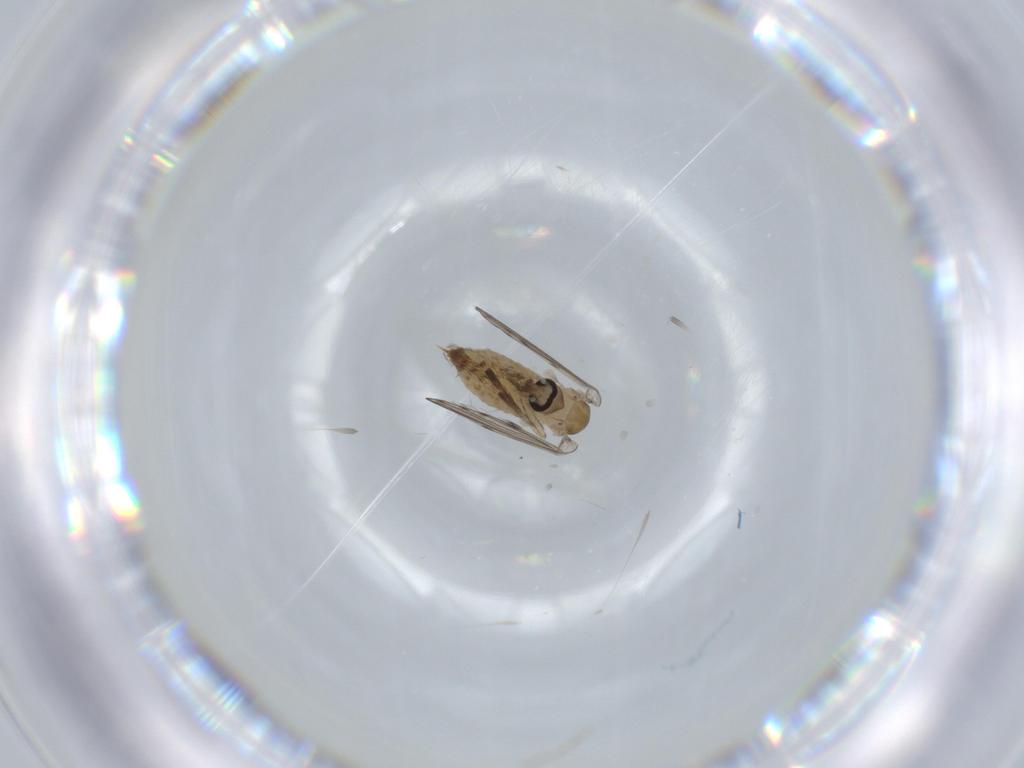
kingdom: Animalia
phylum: Arthropoda
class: Insecta
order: Diptera
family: Psychodidae
